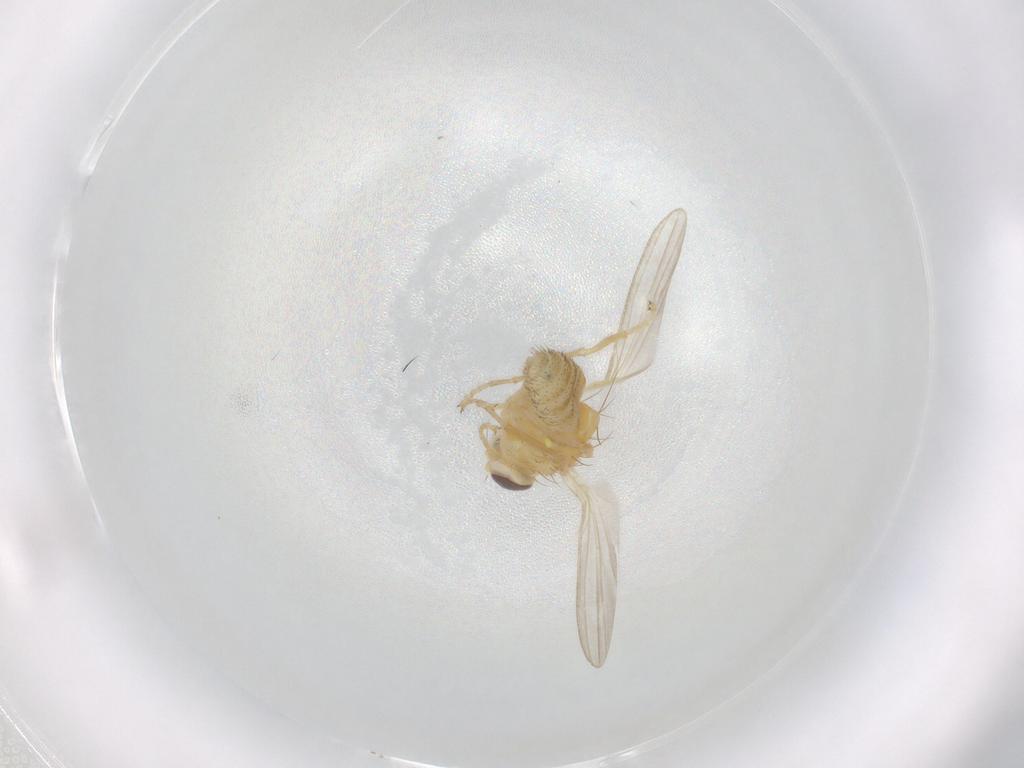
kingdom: Animalia
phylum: Arthropoda
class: Insecta
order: Diptera
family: Chyromyidae
